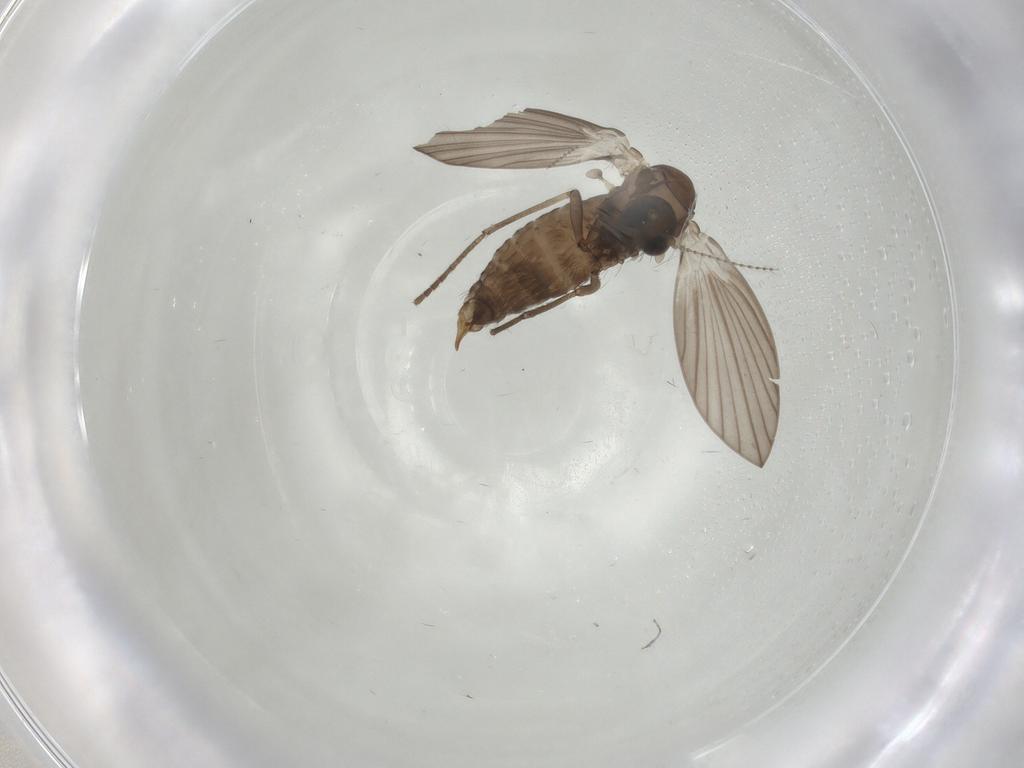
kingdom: Animalia
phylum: Arthropoda
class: Insecta
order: Diptera
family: Psychodidae
